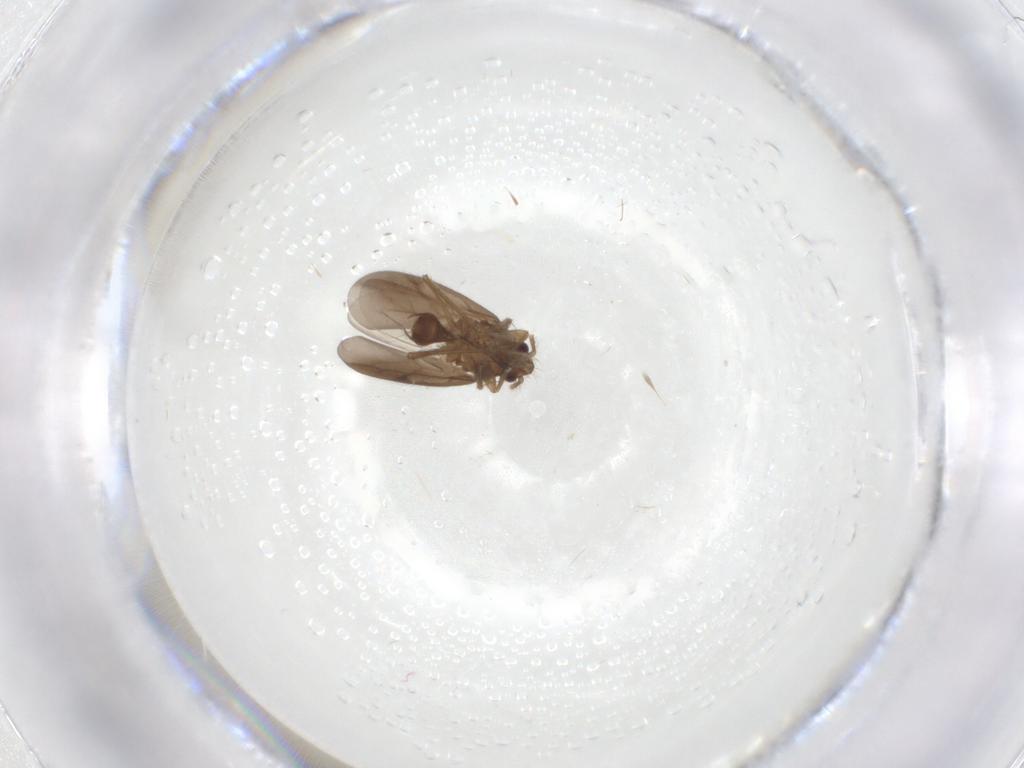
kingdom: Animalia
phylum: Arthropoda
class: Insecta
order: Hemiptera
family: Ceratocombidae
